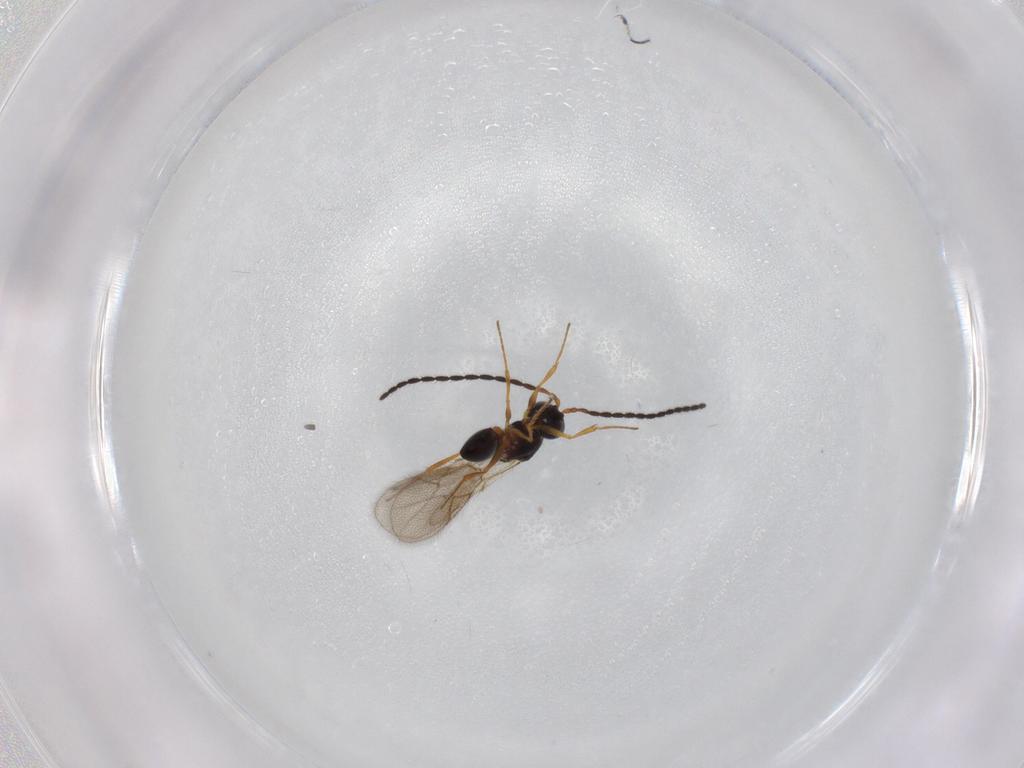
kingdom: Animalia
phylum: Arthropoda
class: Insecta
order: Hymenoptera
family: Figitidae
